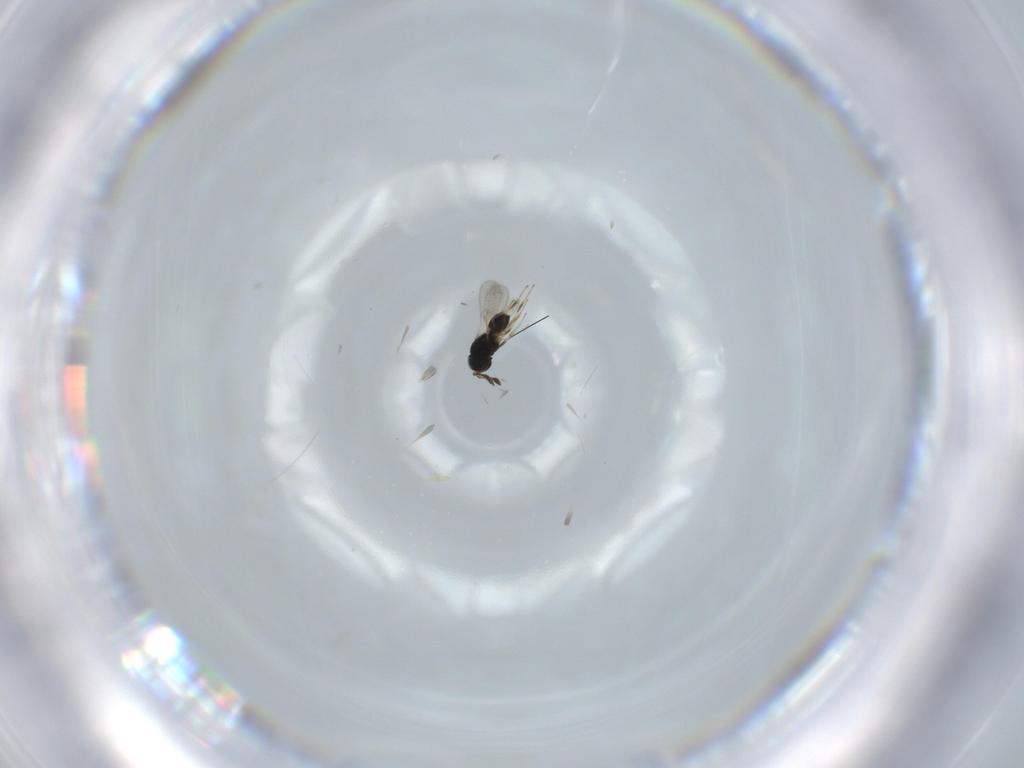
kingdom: Animalia
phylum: Arthropoda
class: Insecta
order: Hymenoptera
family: Scelionidae
